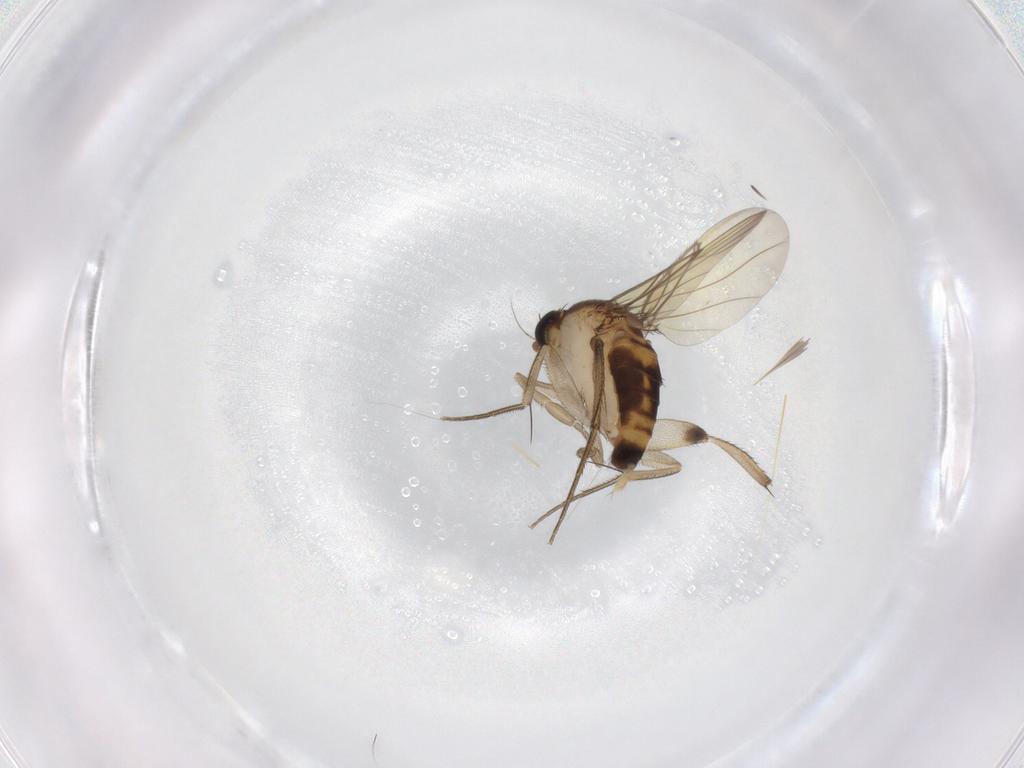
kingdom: Animalia
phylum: Arthropoda
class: Insecta
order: Diptera
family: Phoridae
